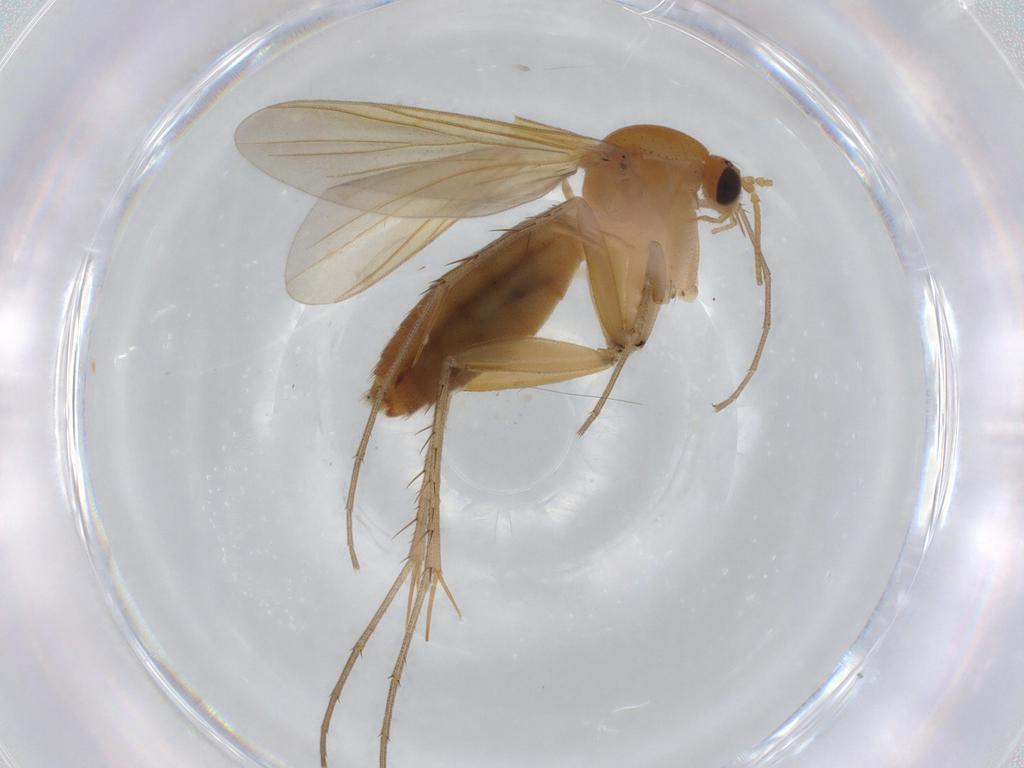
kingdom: Animalia
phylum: Arthropoda
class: Insecta
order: Diptera
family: Mycetophilidae
